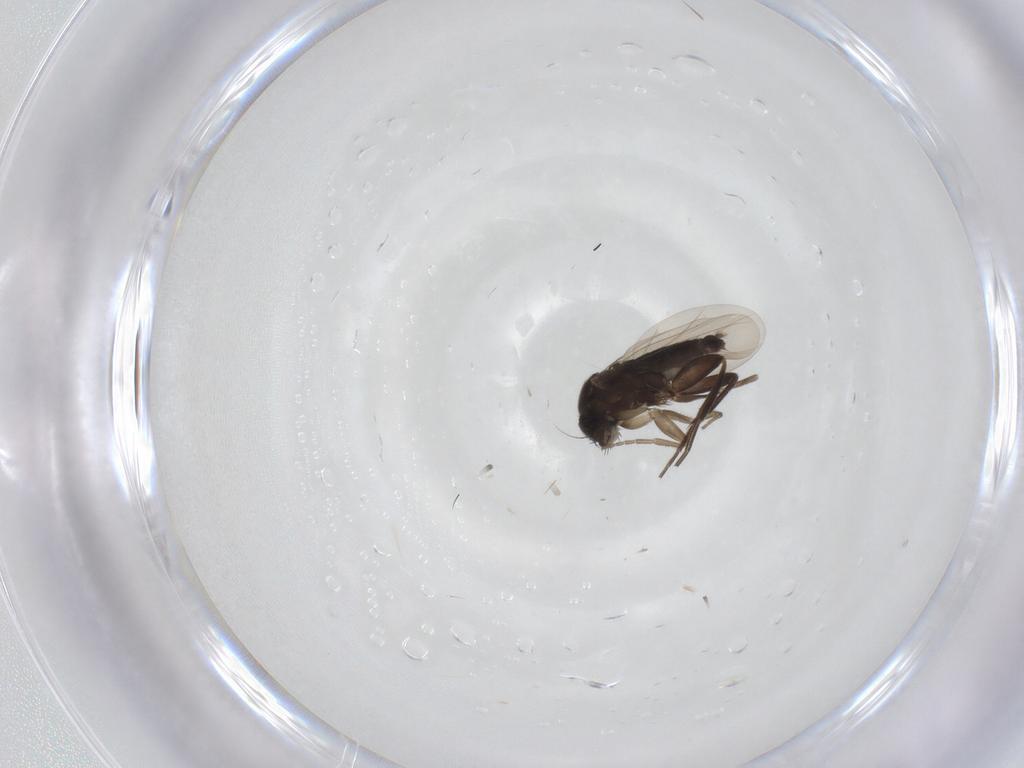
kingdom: Animalia
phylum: Arthropoda
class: Insecta
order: Diptera
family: Phoridae
